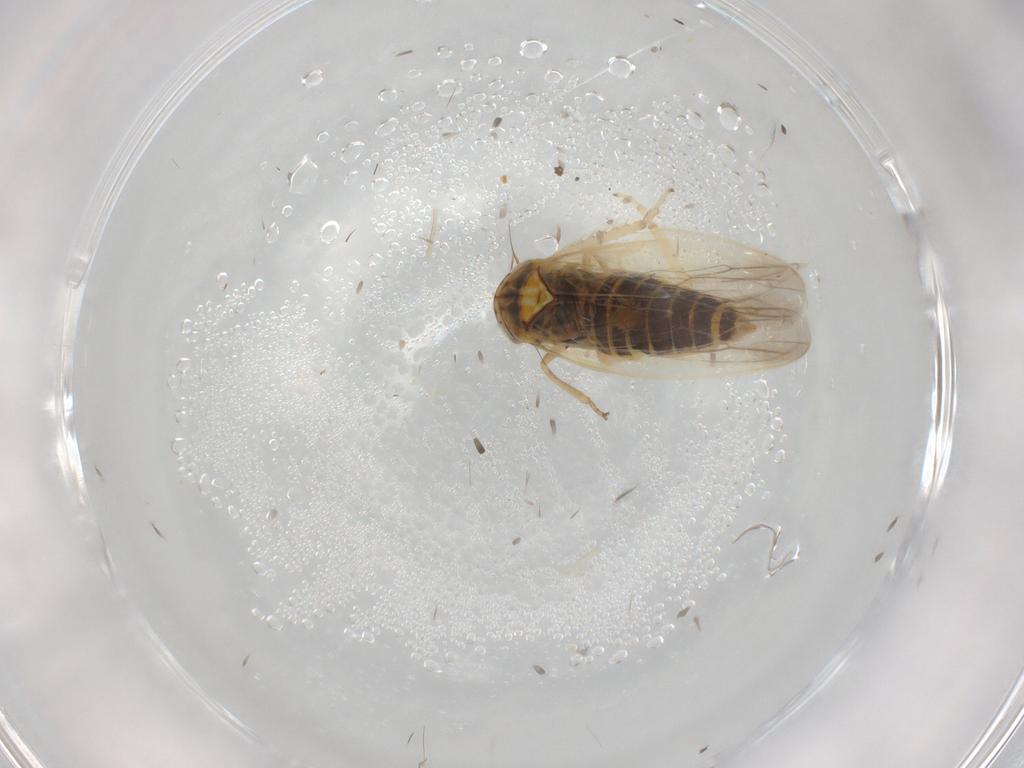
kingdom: Animalia
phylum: Arthropoda
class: Insecta
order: Hemiptera
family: Cicadellidae
